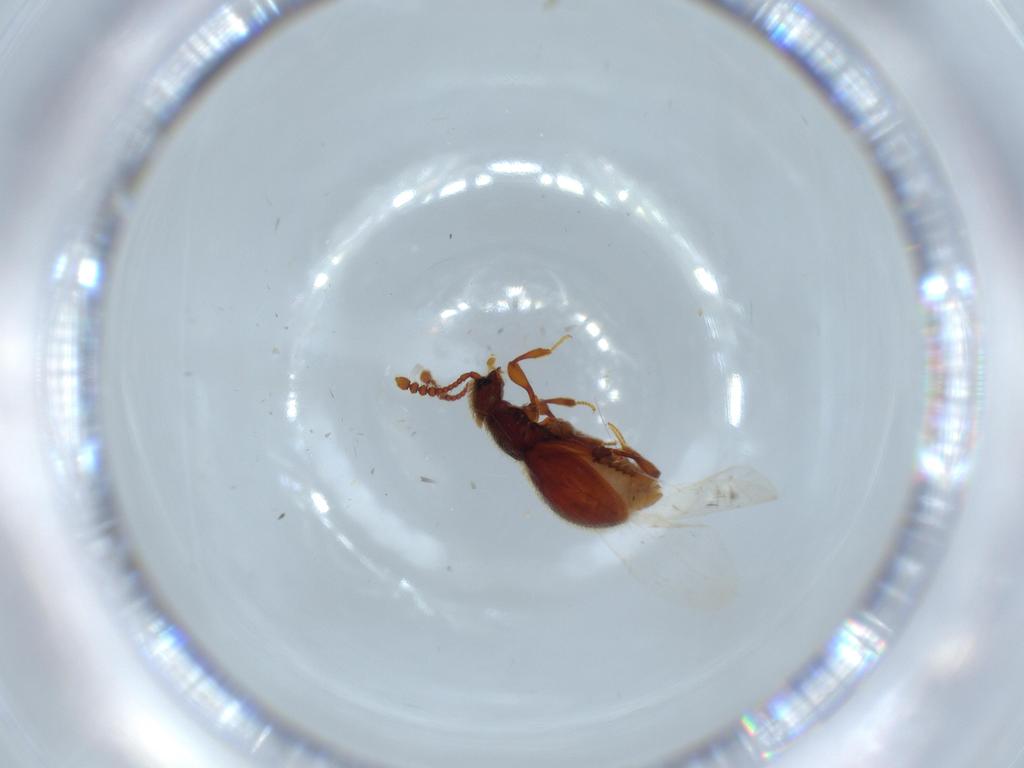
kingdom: Animalia
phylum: Arthropoda
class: Insecta
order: Coleoptera
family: Chrysomelidae
